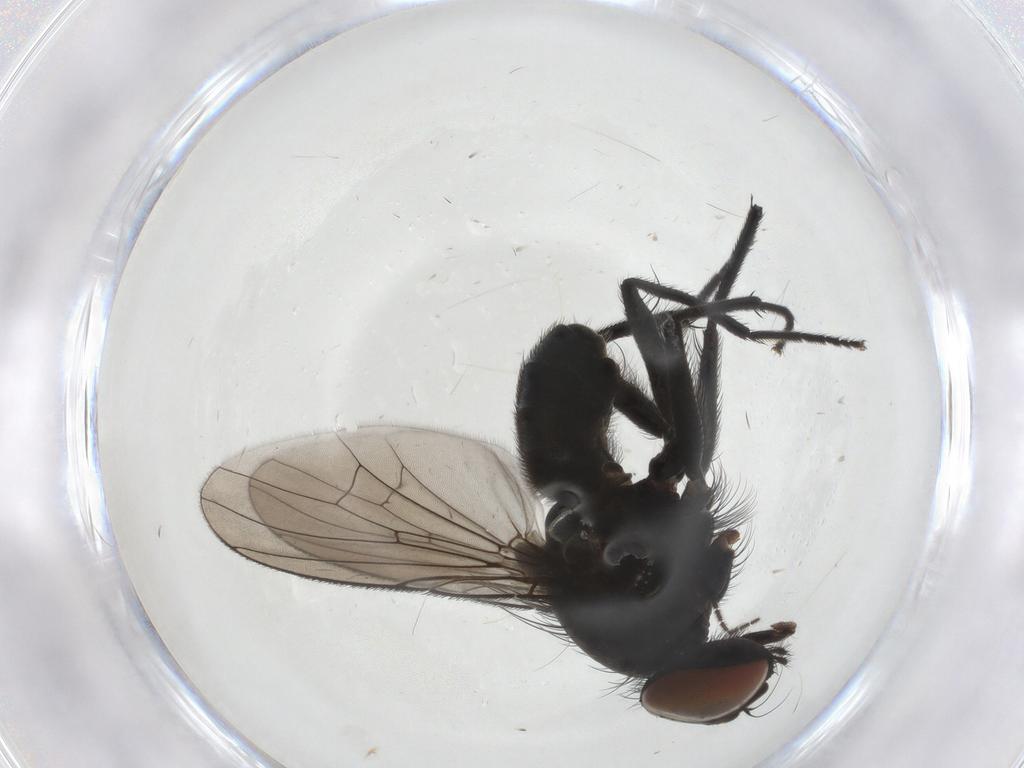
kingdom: Animalia
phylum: Arthropoda
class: Insecta
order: Diptera
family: Muscidae
